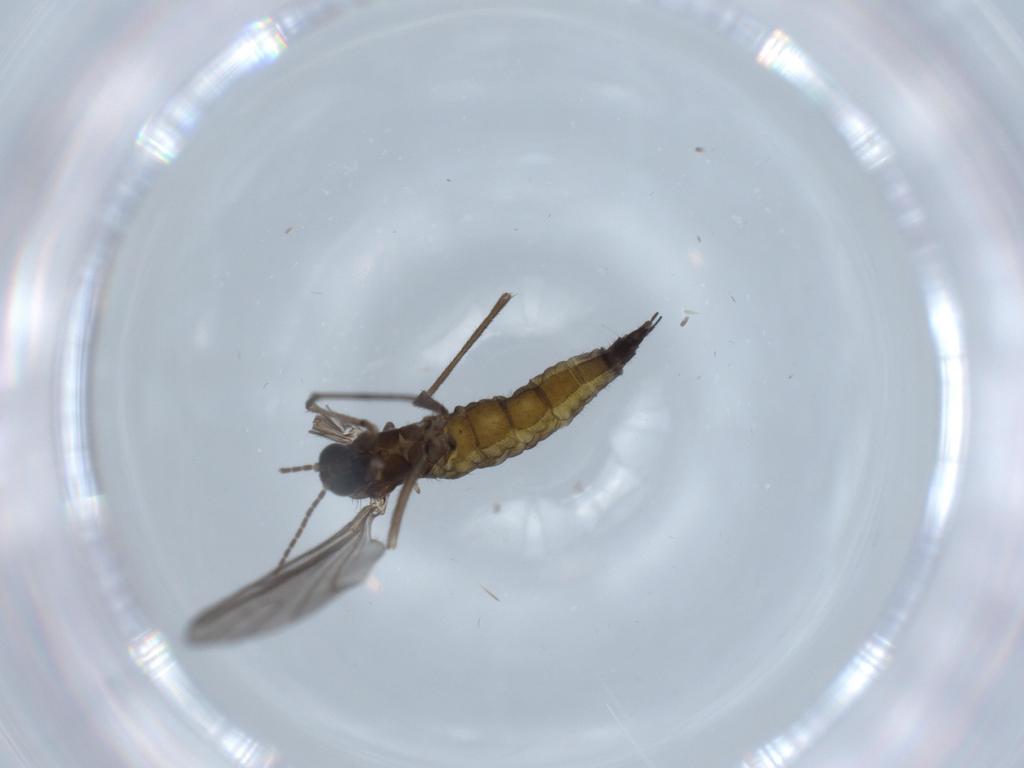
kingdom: Animalia
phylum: Arthropoda
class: Insecta
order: Diptera
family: Sciaridae
